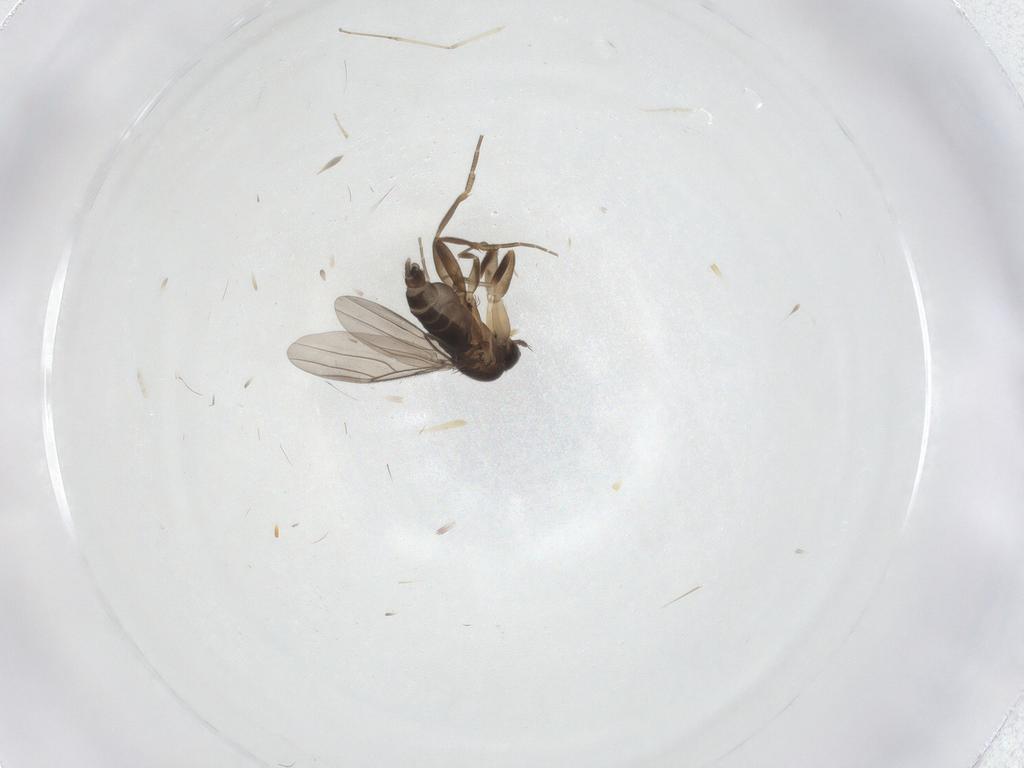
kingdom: Animalia
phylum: Arthropoda
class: Insecta
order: Diptera
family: Phoridae
